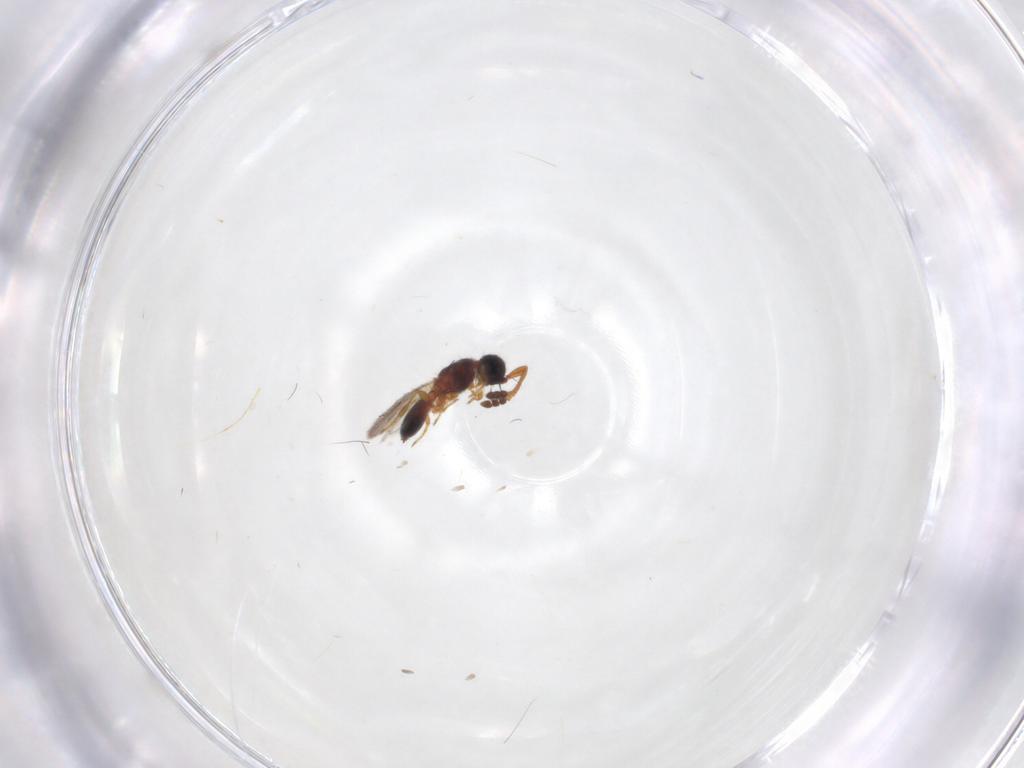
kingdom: Animalia
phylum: Arthropoda
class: Insecta
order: Hymenoptera
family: Diapriidae
